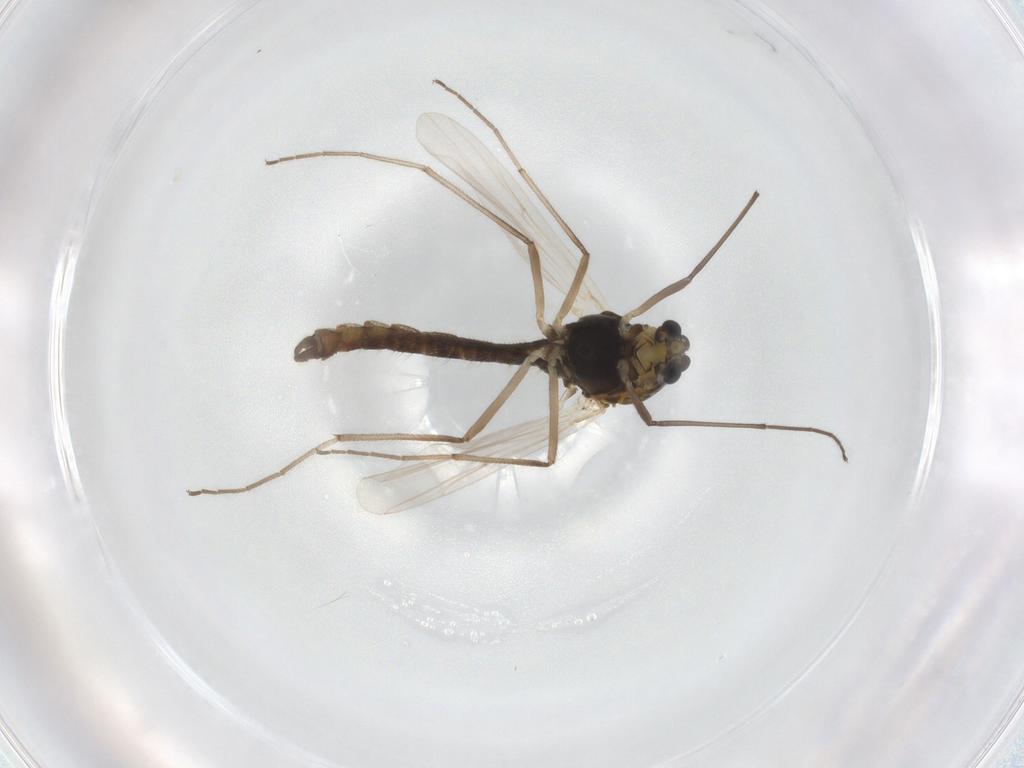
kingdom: Animalia
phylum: Arthropoda
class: Insecta
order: Diptera
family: Chironomidae
